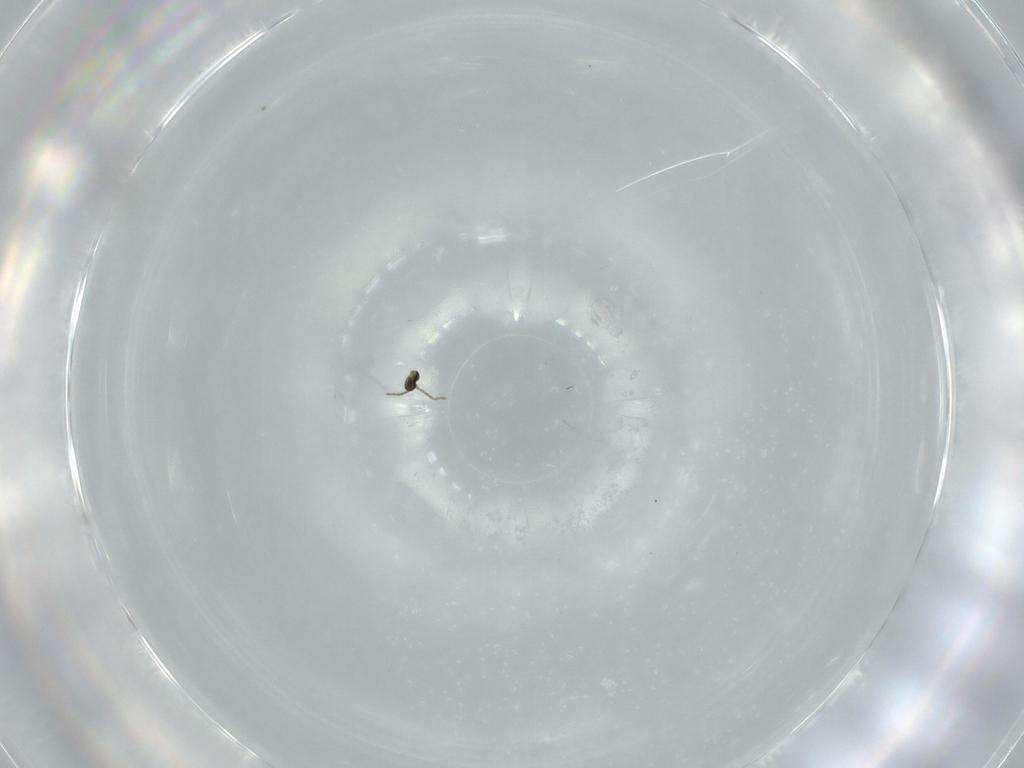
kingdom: Animalia
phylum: Arthropoda
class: Insecta
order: Diptera
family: Cecidomyiidae
